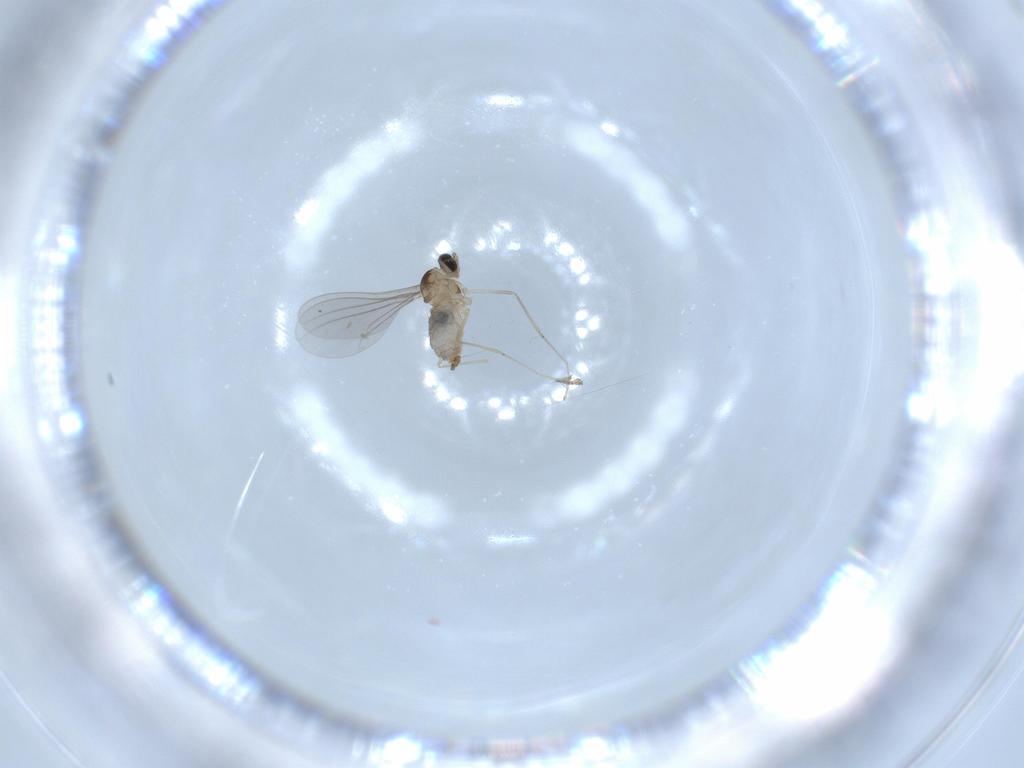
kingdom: Animalia
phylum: Arthropoda
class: Insecta
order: Diptera
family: Cecidomyiidae
